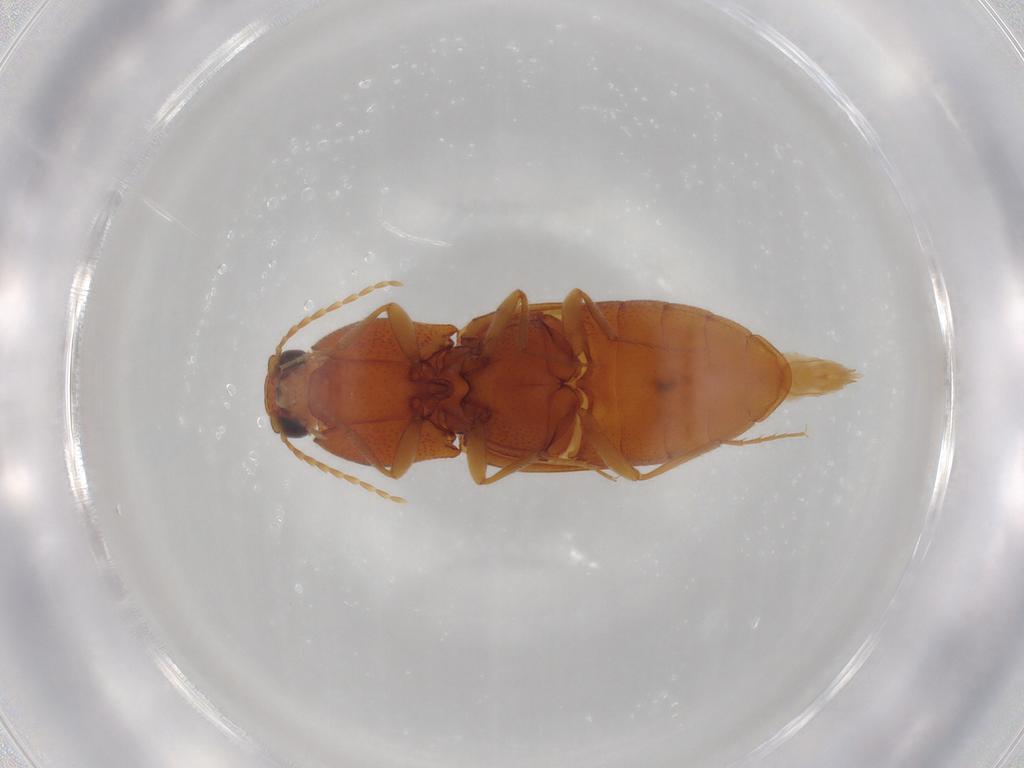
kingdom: Animalia
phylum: Arthropoda
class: Insecta
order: Coleoptera
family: Elateridae
